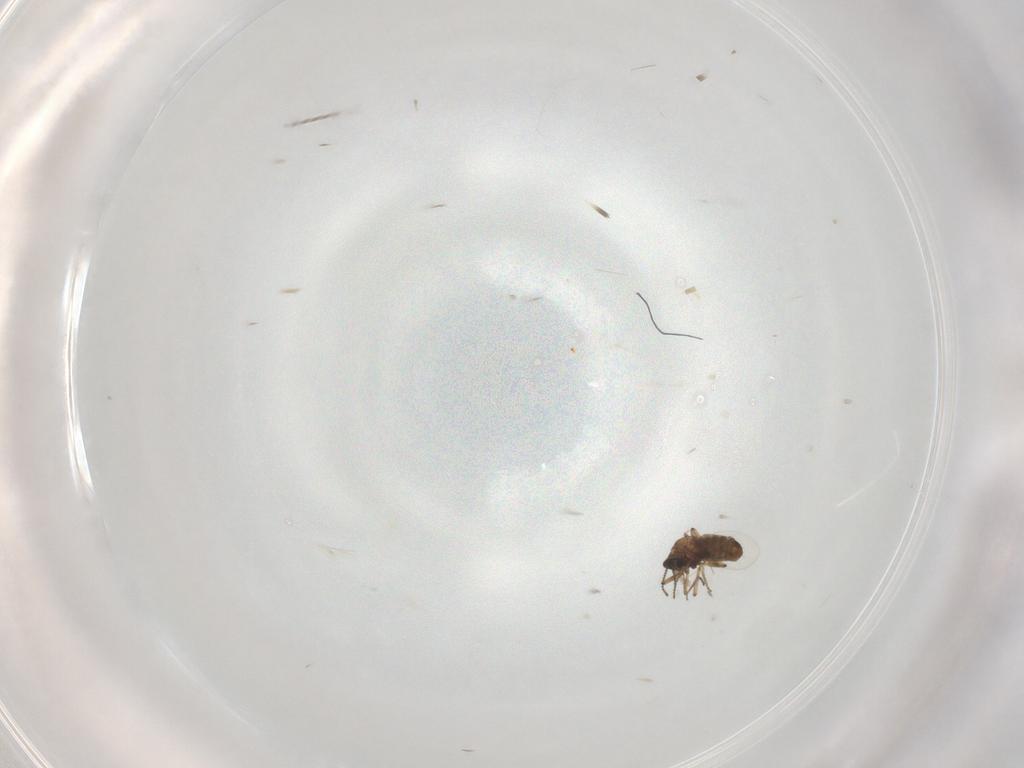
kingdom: Animalia
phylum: Arthropoda
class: Insecta
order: Diptera
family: Ceratopogonidae
